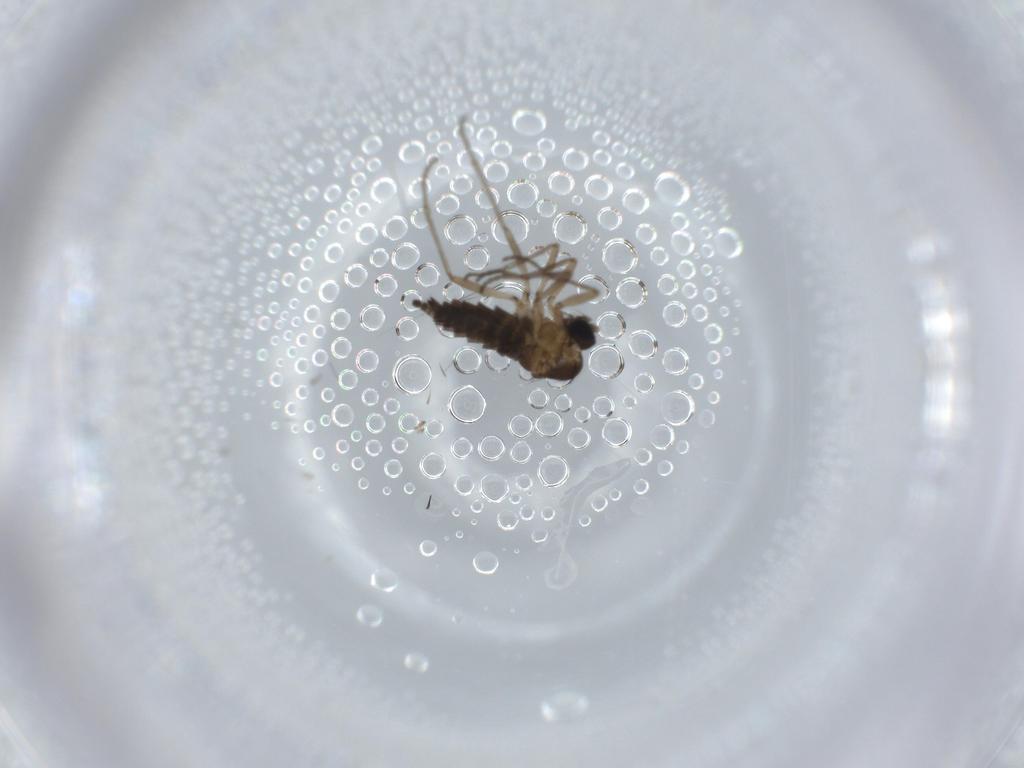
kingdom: Animalia
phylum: Arthropoda
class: Insecta
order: Diptera
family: Sciaridae
